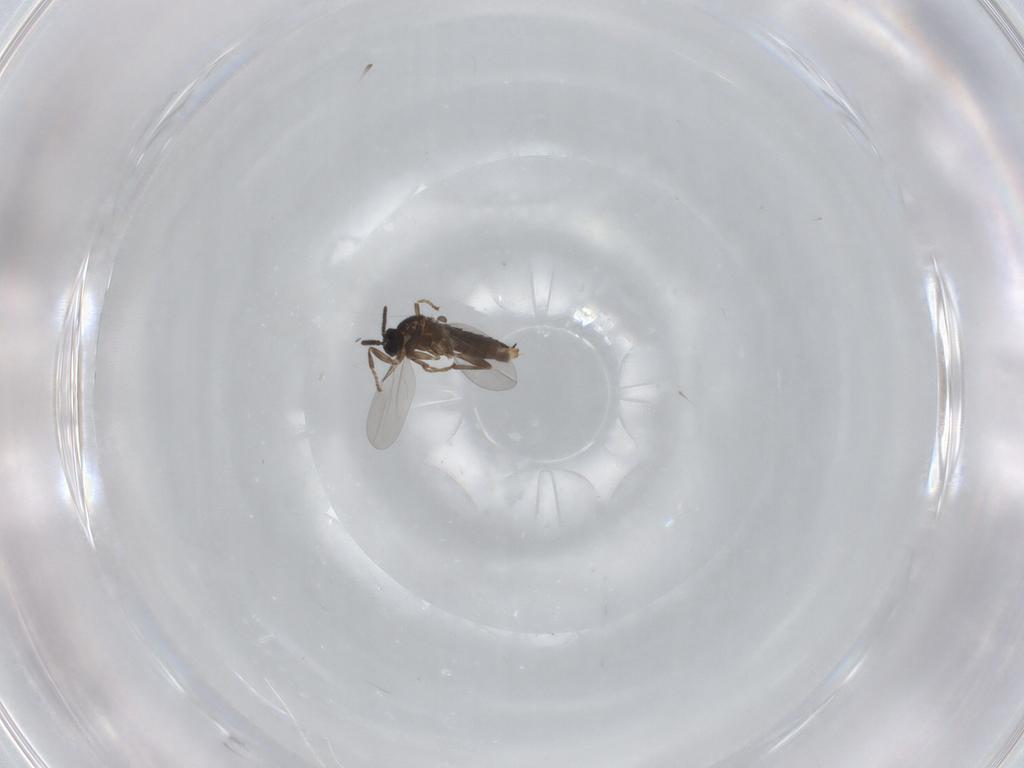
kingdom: Animalia
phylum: Arthropoda
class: Insecta
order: Diptera
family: Scatopsidae
